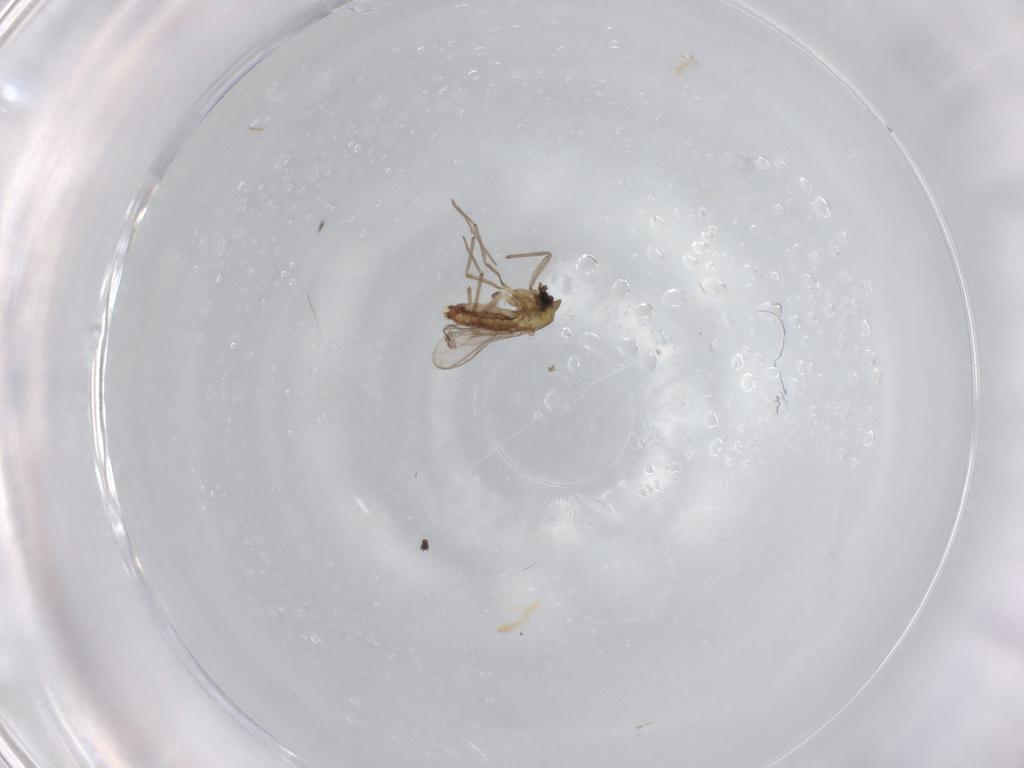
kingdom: Animalia
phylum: Arthropoda
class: Insecta
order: Diptera
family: Cecidomyiidae
